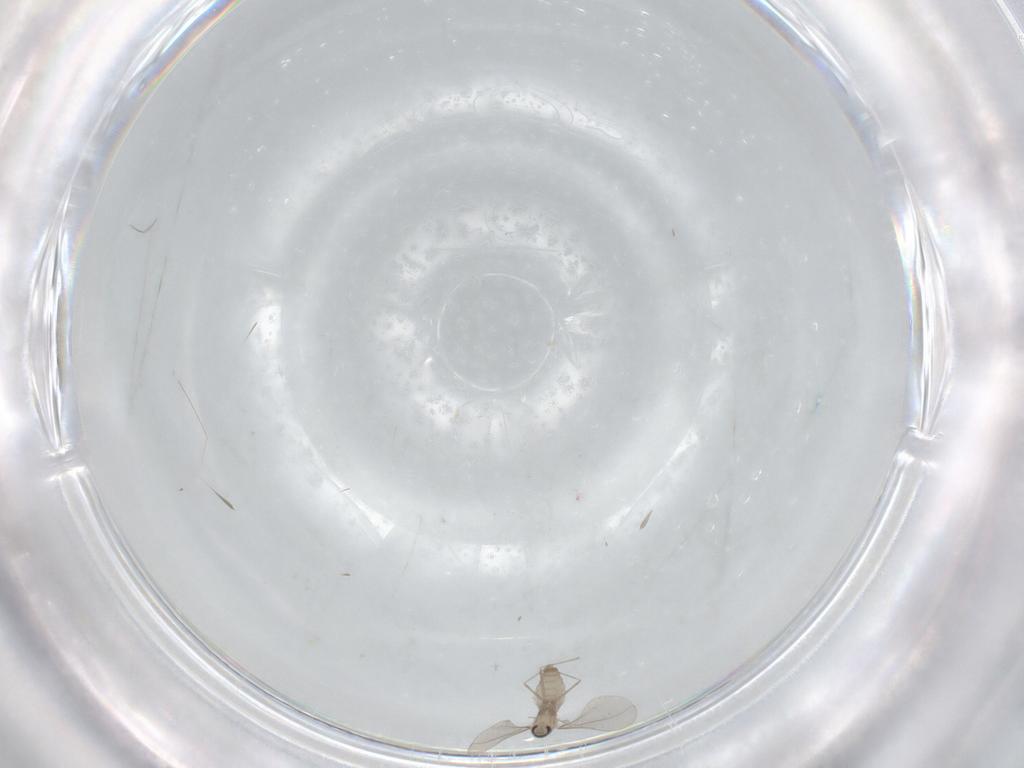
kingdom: Animalia
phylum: Arthropoda
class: Insecta
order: Diptera
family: Cecidomyiidae
